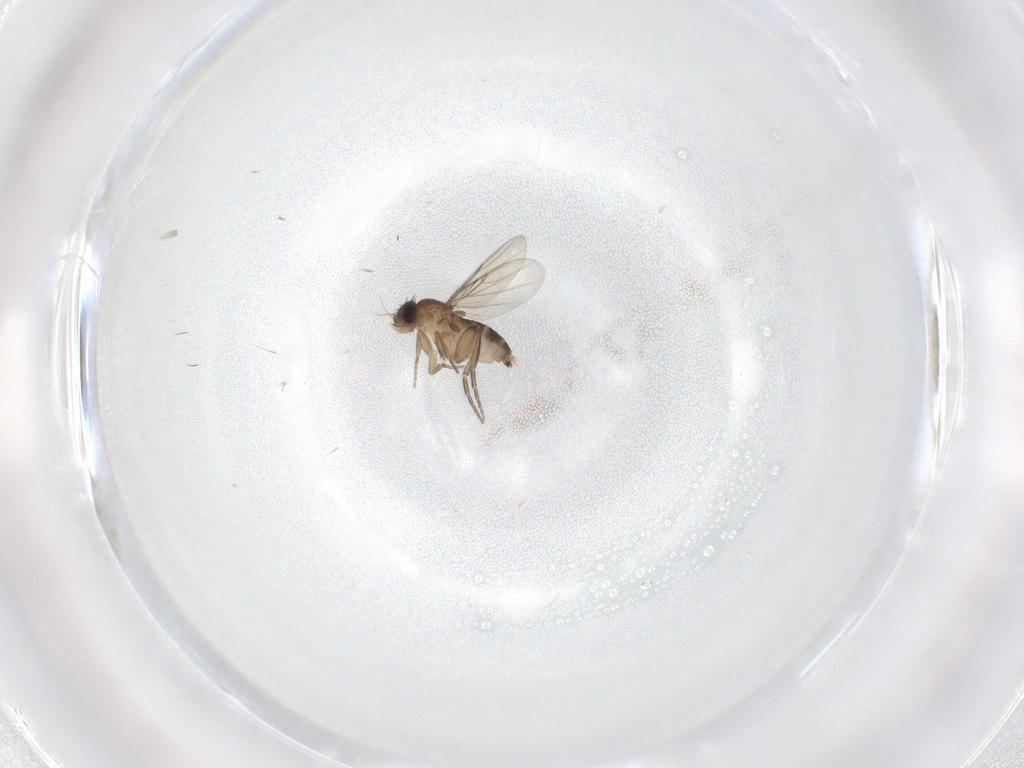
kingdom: Animalia
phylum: Arthropoda
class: Insecta
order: Diptera
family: Phoridae
